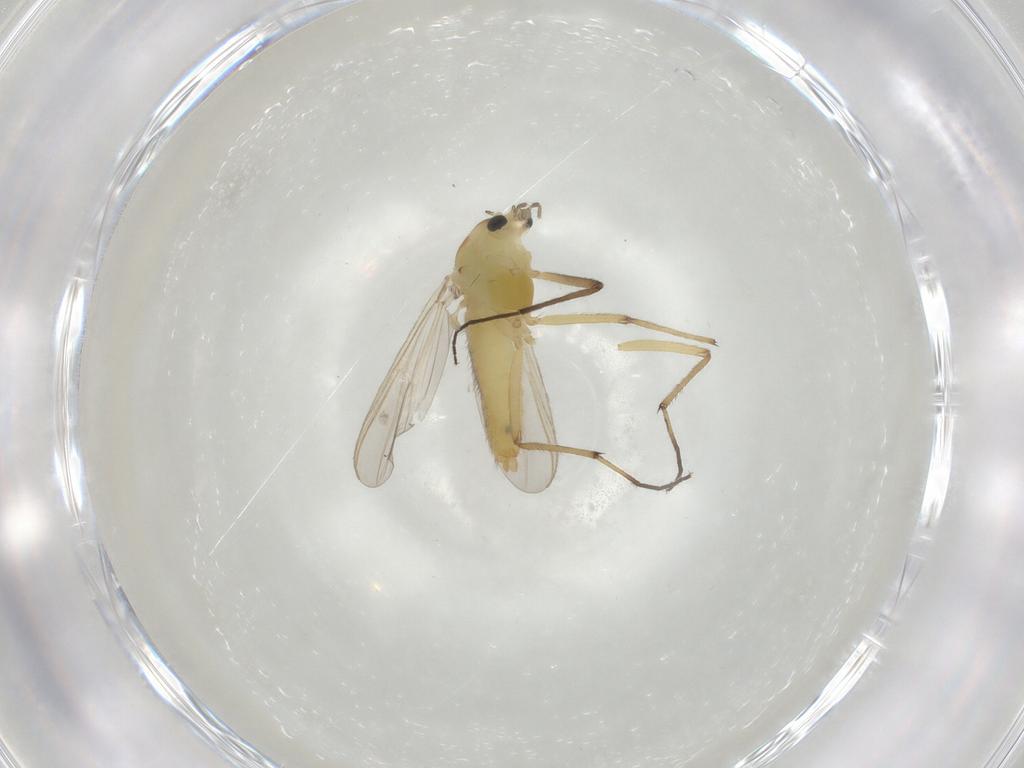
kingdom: Animalia
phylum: Arthropoda
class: Insecta
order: Diptera
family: Chironomidae
